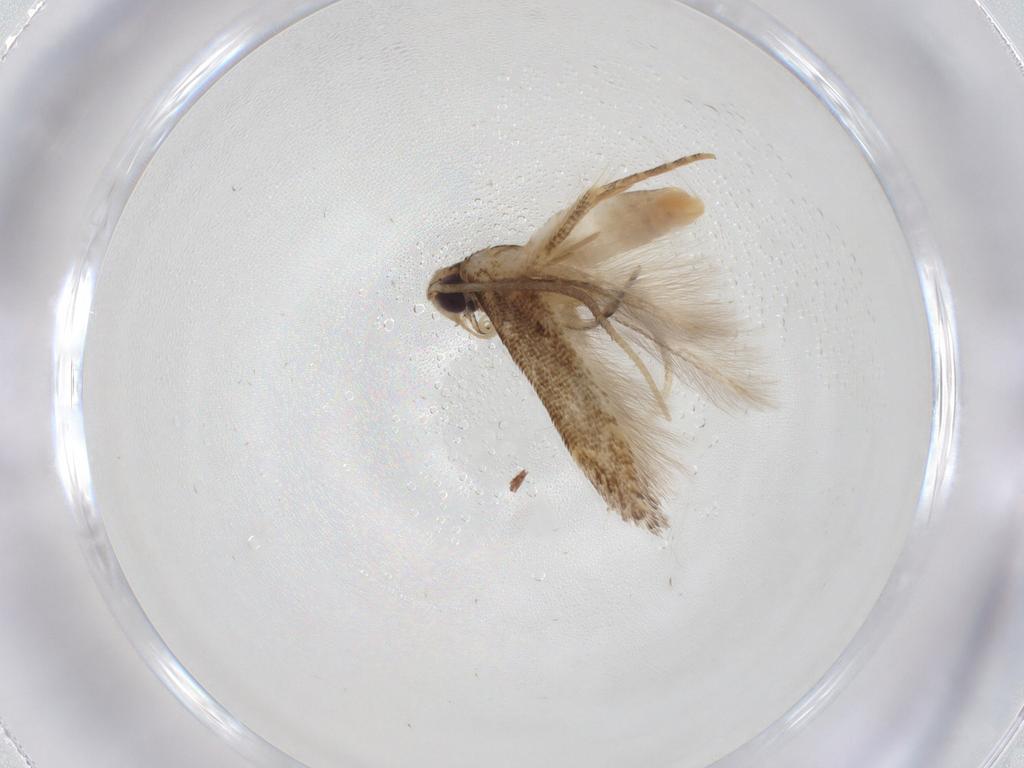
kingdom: Animalia
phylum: Arthropoda
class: Insecta
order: Lepidoptera
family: Cosmopterigidae
